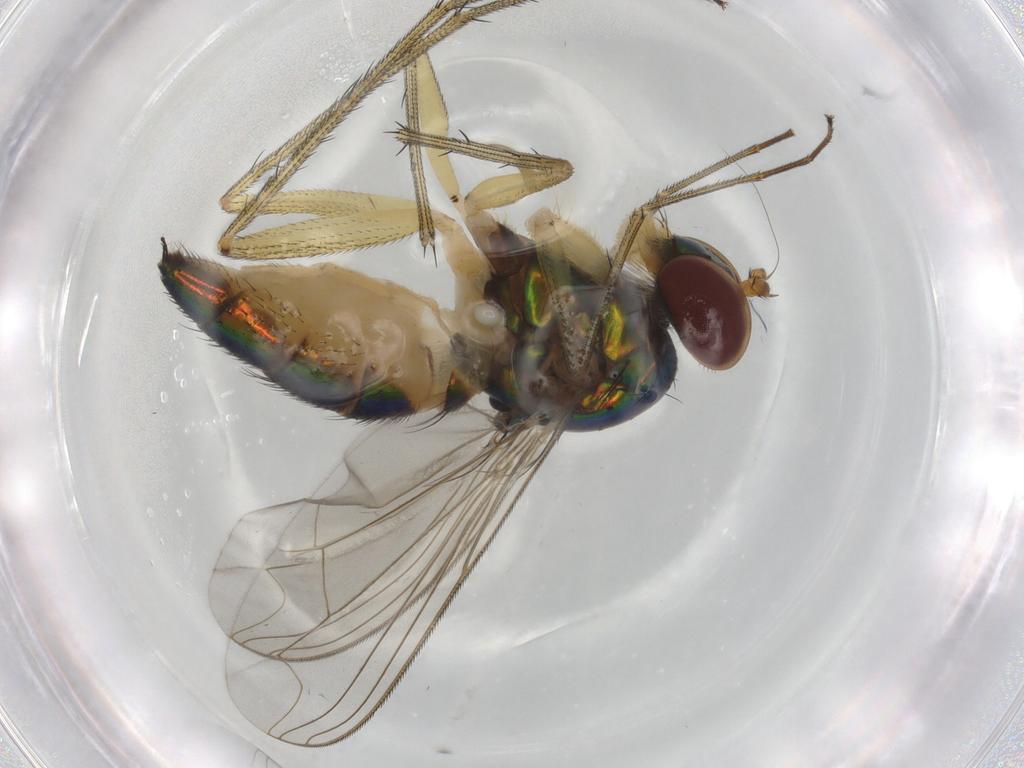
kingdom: Animalia
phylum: Arthropoda
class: Insecta
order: Diptera
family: Dolichopodidae
